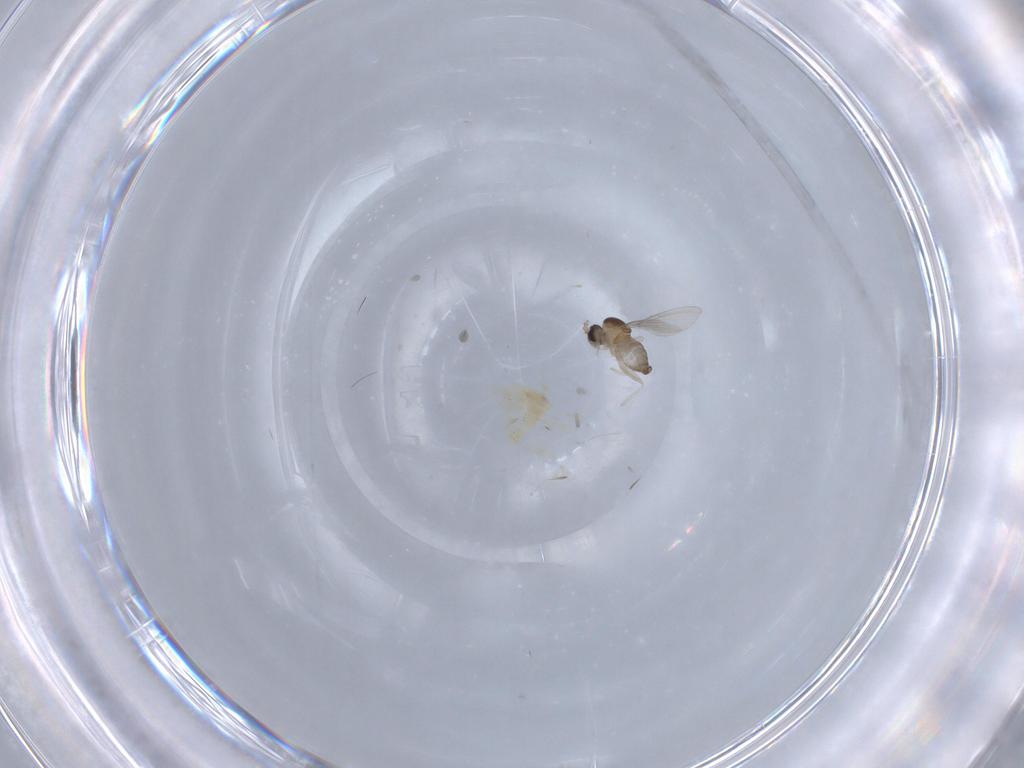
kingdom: Animalia
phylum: Arthropoda
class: Insecta
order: Diptera
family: Cecidomyiidae
